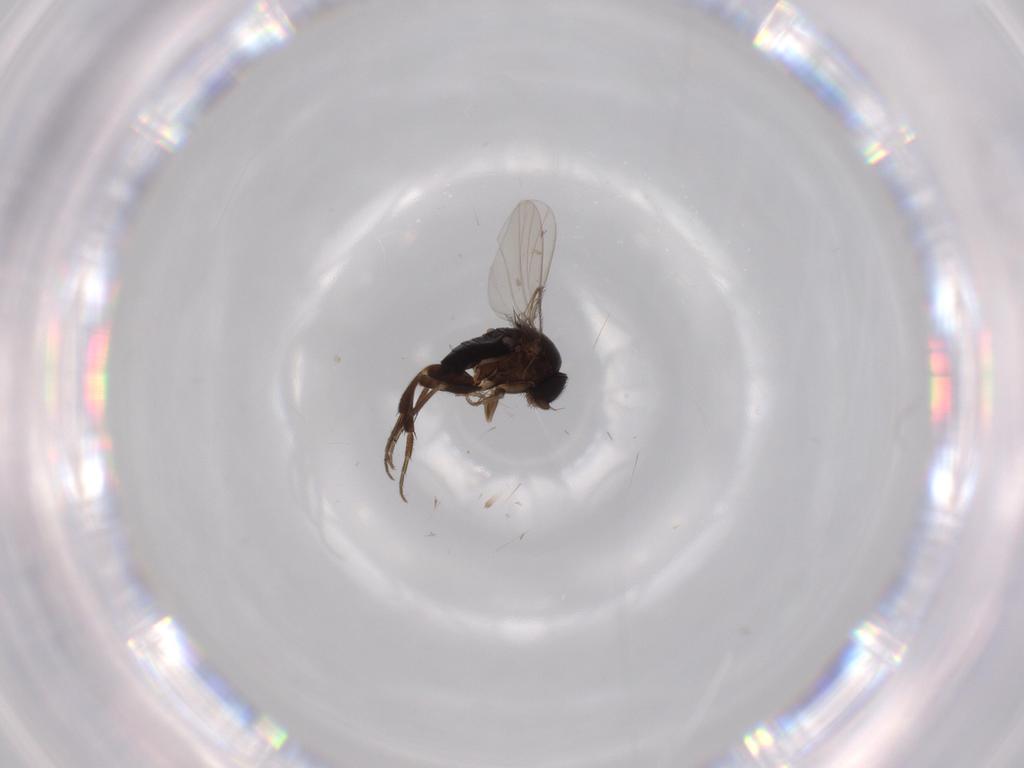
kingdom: Animalia
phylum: Arthropoda
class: Insecta
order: Diptera
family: Phoridae
